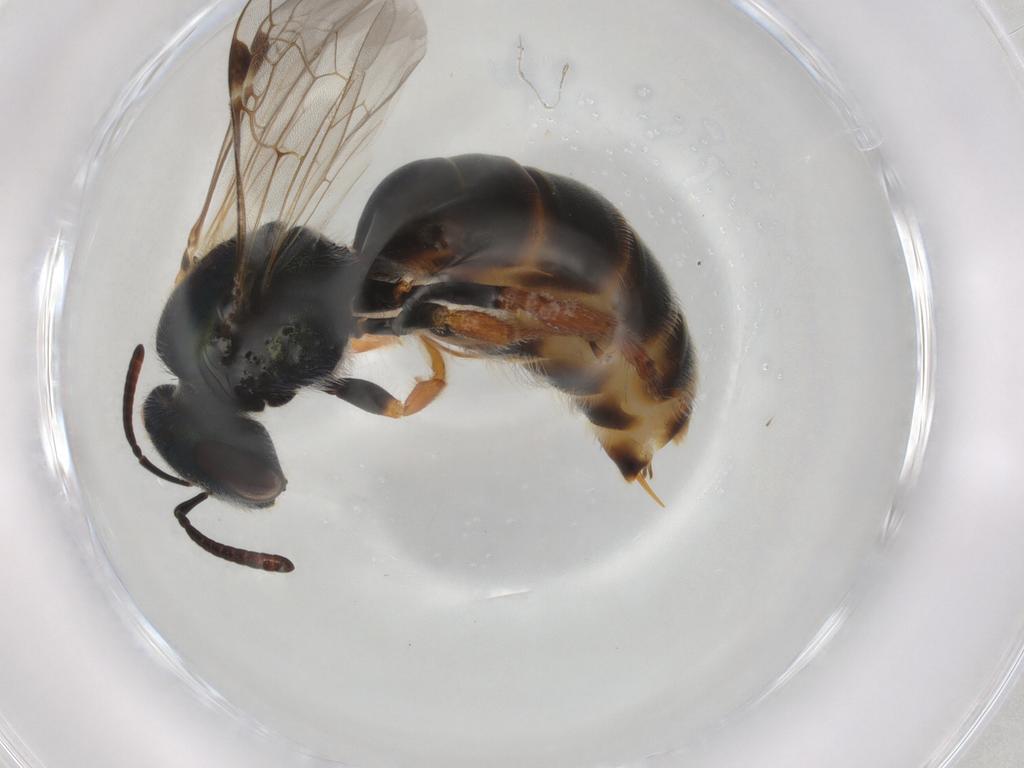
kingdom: Animalia
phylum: Arthropoda
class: Insecta
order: Hymenoptera
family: Halictidae
